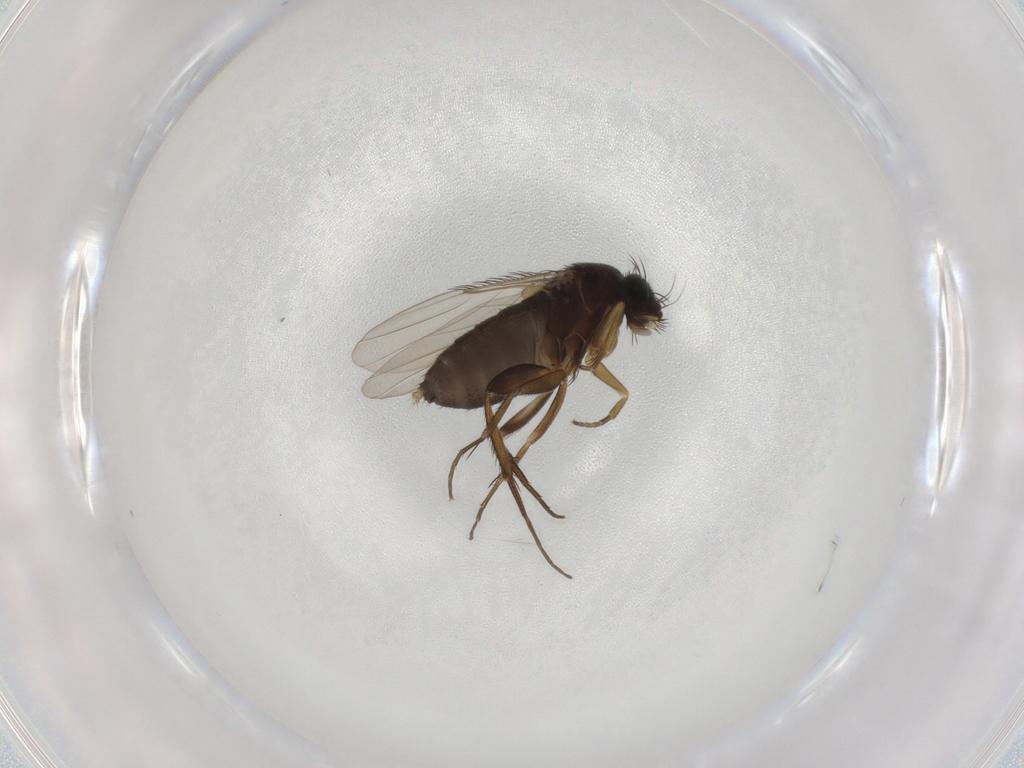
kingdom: Animalia
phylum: Arthropoda
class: Insecta
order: Diptera
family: Phoridae
